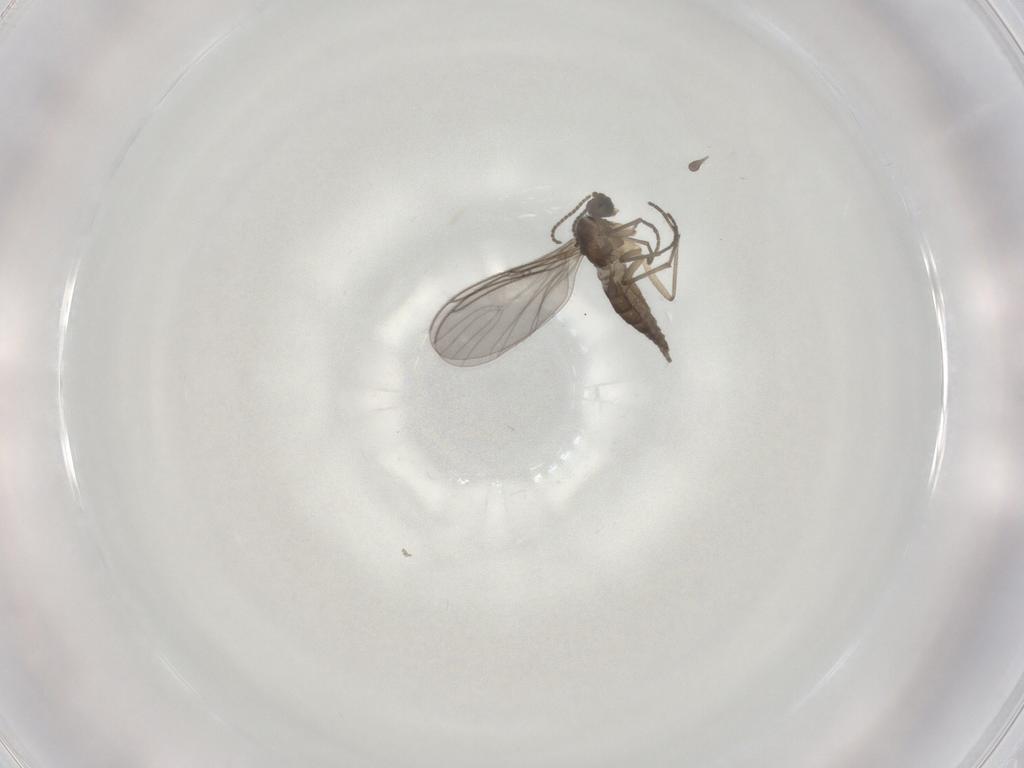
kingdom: Animalia
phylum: Arthropoda
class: Insecta
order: Diptera
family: Sciaridae
